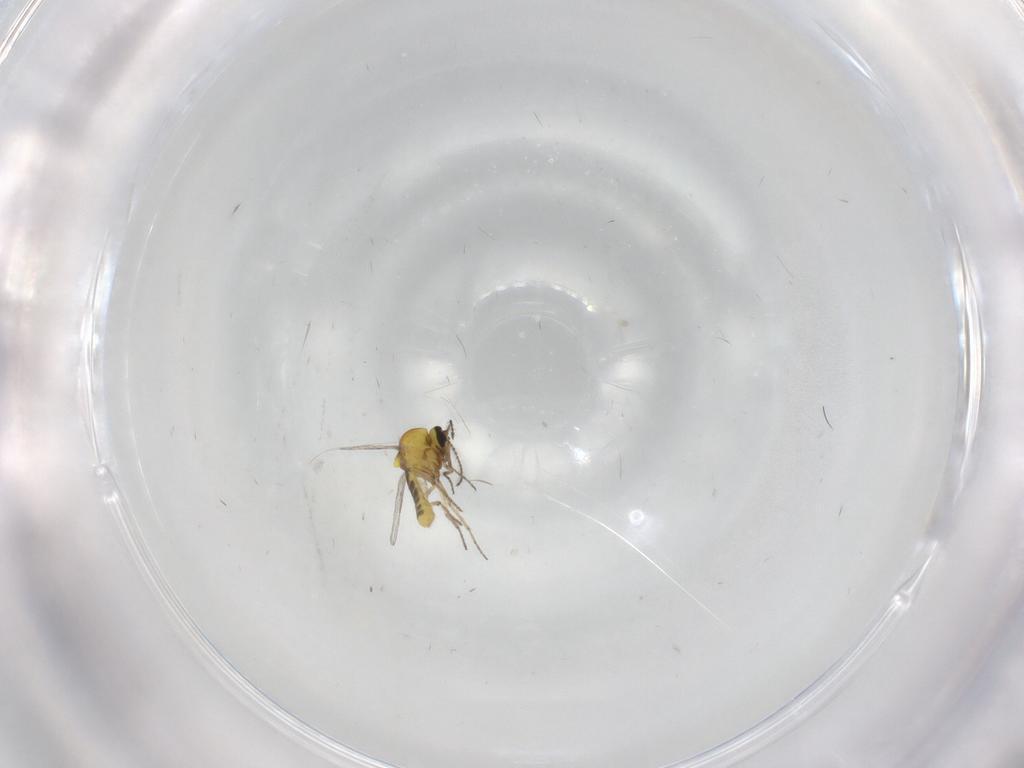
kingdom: Animalia
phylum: Arthropoda
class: Insecta
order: Diptera
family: Ceratopogonidae
